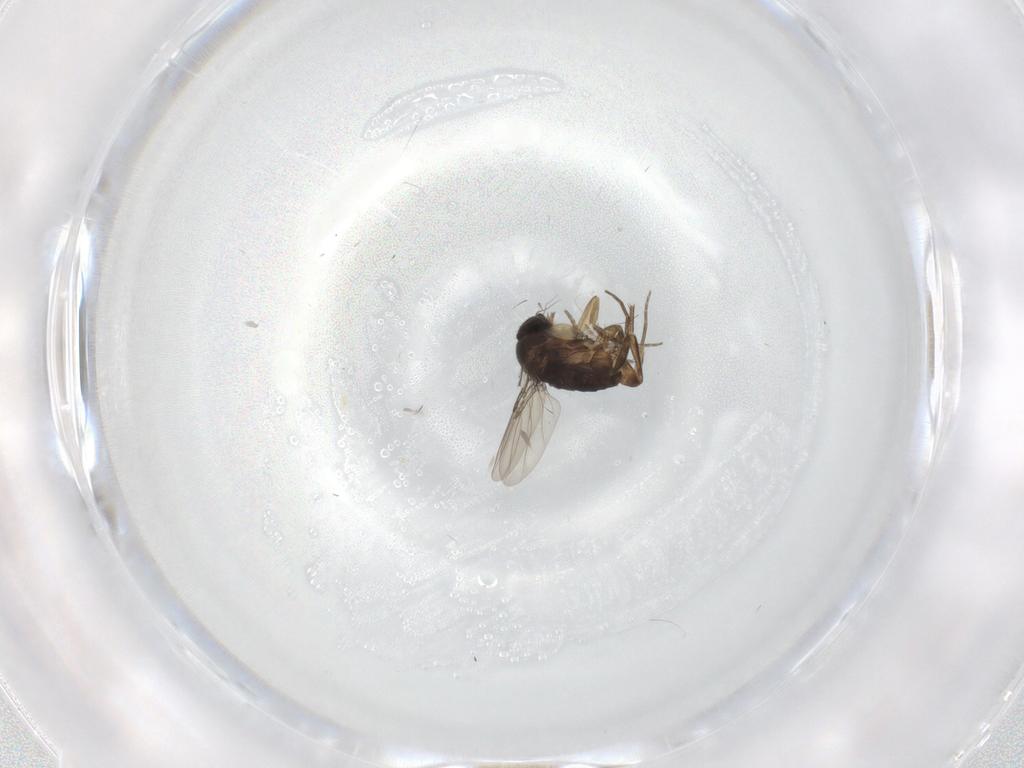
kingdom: Animalia
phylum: Arthropoda
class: Insecta
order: Diptera
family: Phoridae
